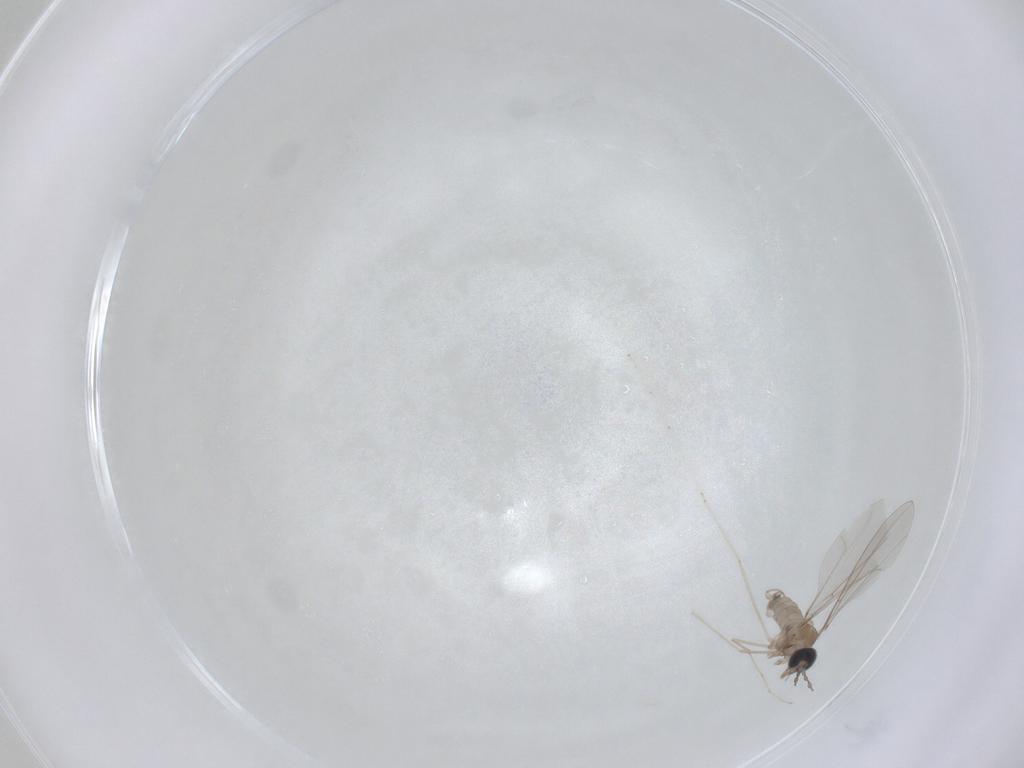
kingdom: Animalia
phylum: Arthropoda
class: Insecta
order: Diptera
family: Cecidomyiidae
